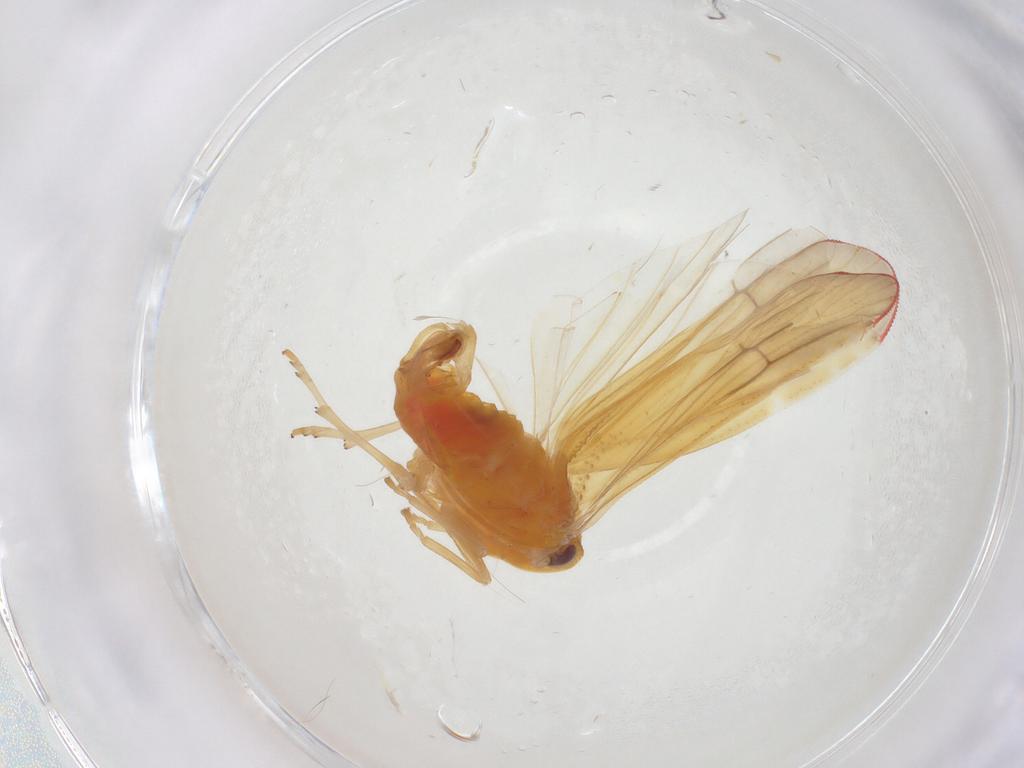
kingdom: Animalia
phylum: Arthropoda
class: Insecta
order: Hemiptera
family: Derbidae
